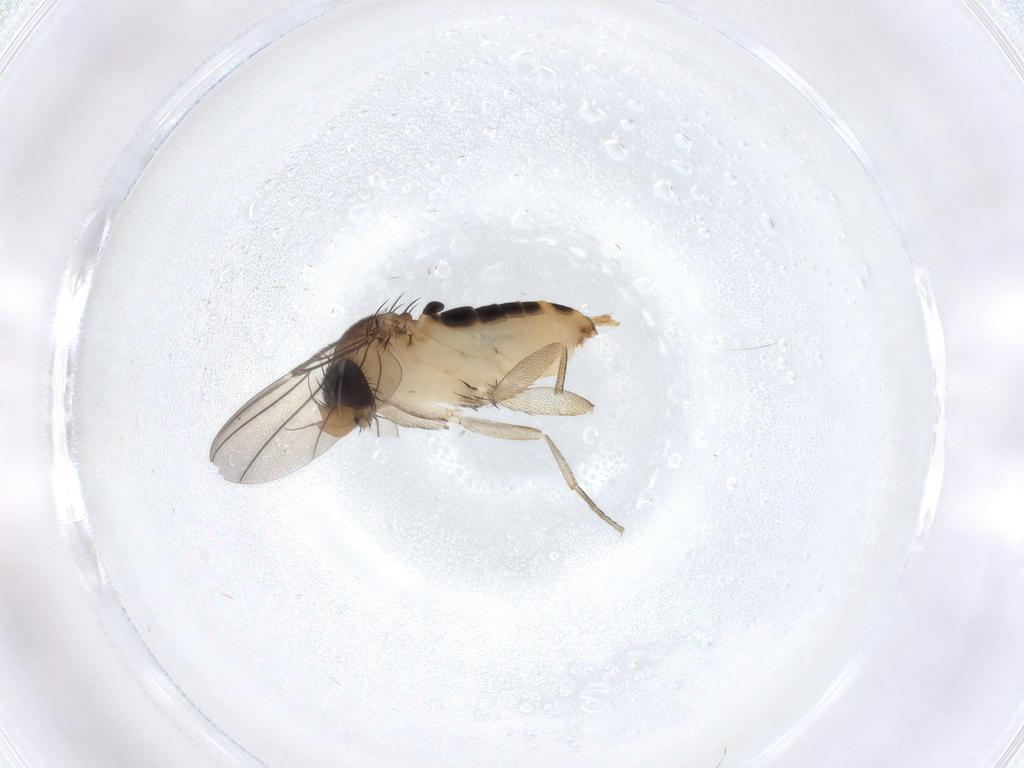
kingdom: Animalia
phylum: Arthropoda
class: Insecta
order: Diptera
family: Phoridae
